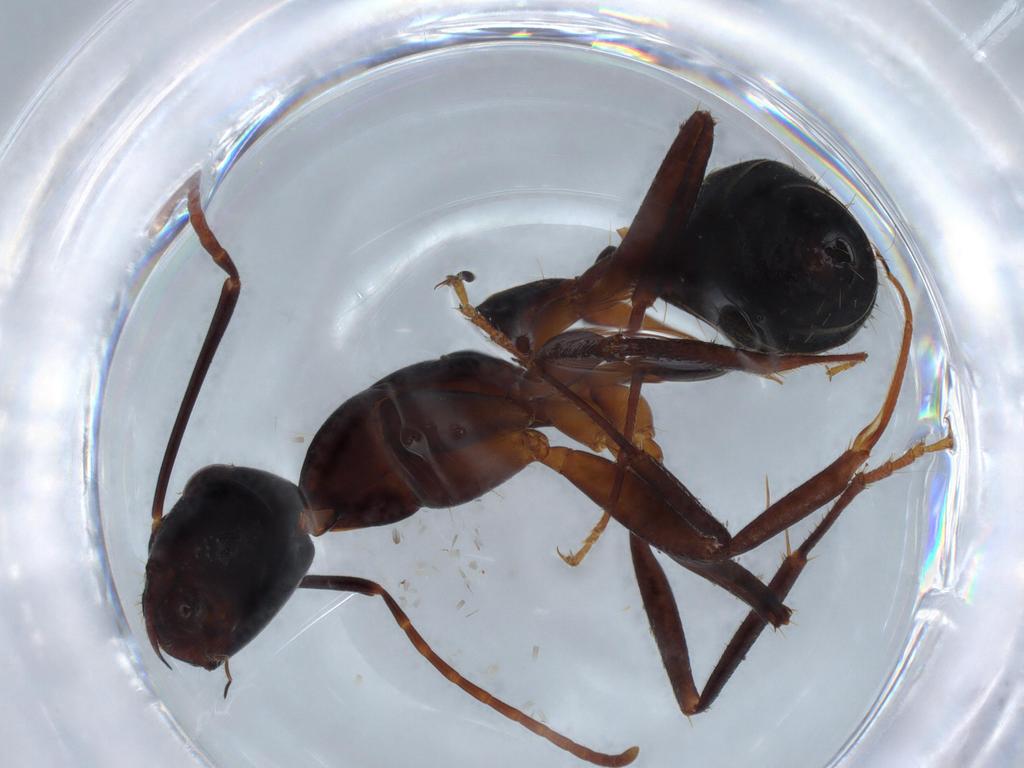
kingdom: Animalia
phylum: Arthropoda
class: Insecta
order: Hymenoptera
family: Formicidae
